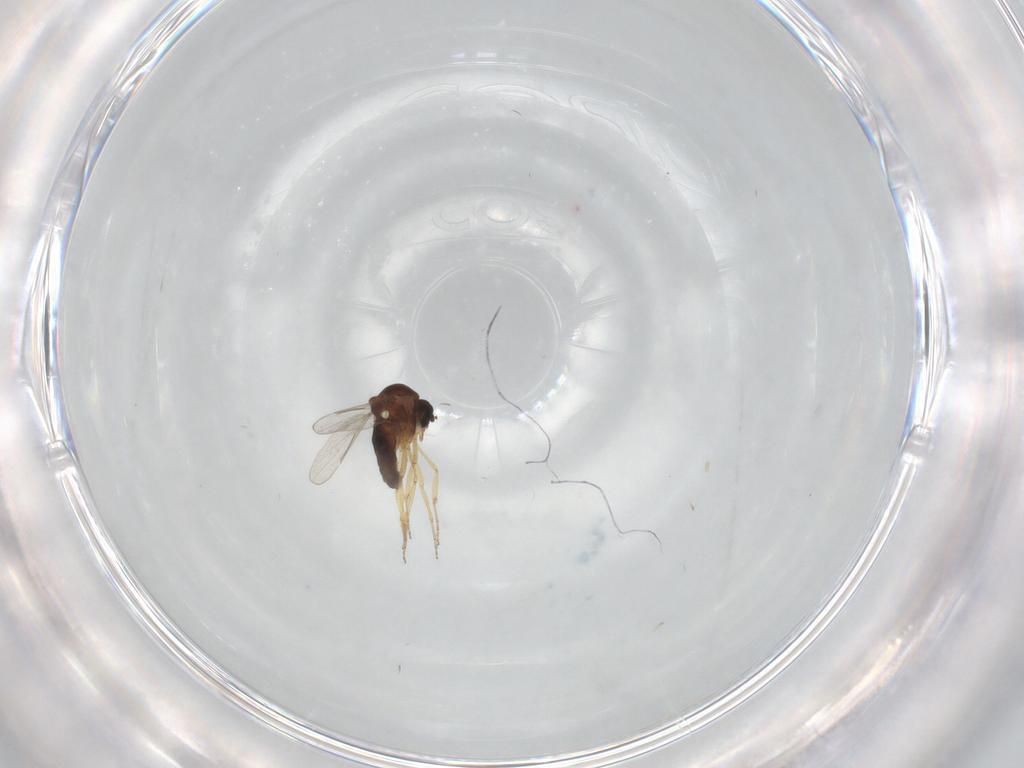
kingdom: Animalia
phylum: Arthropoda
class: Insecta
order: Diptera
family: Ceratopogonidae
